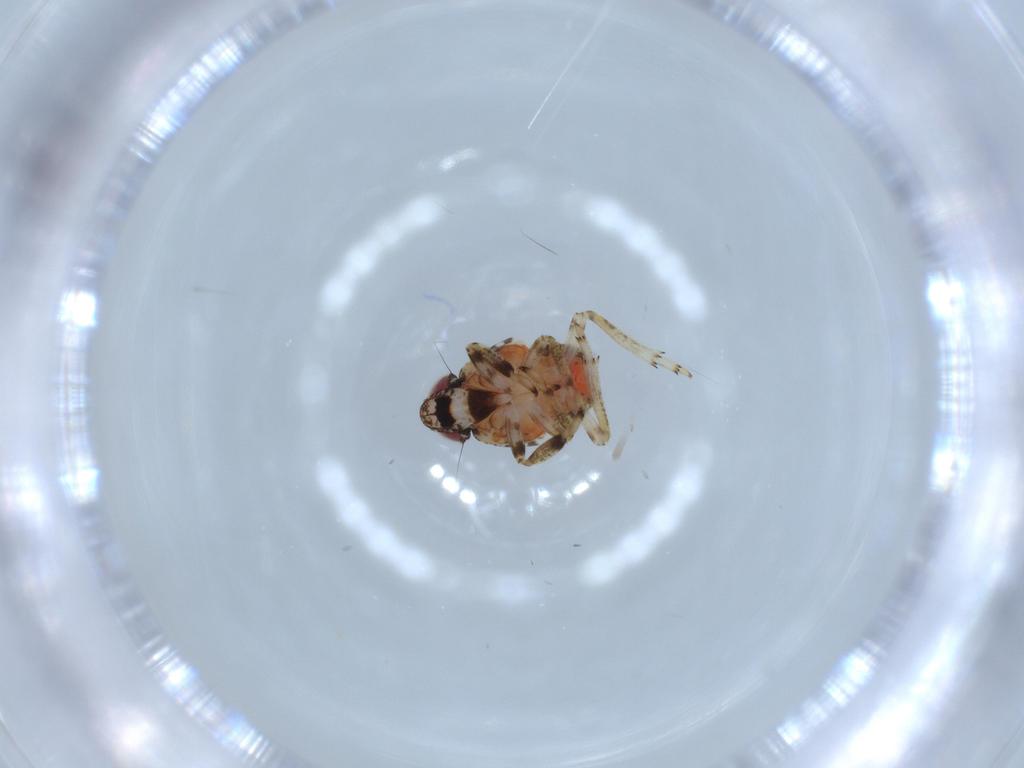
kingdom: Animalia
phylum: Arthropoda
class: Insecta
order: Hemiptera
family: Issidae
